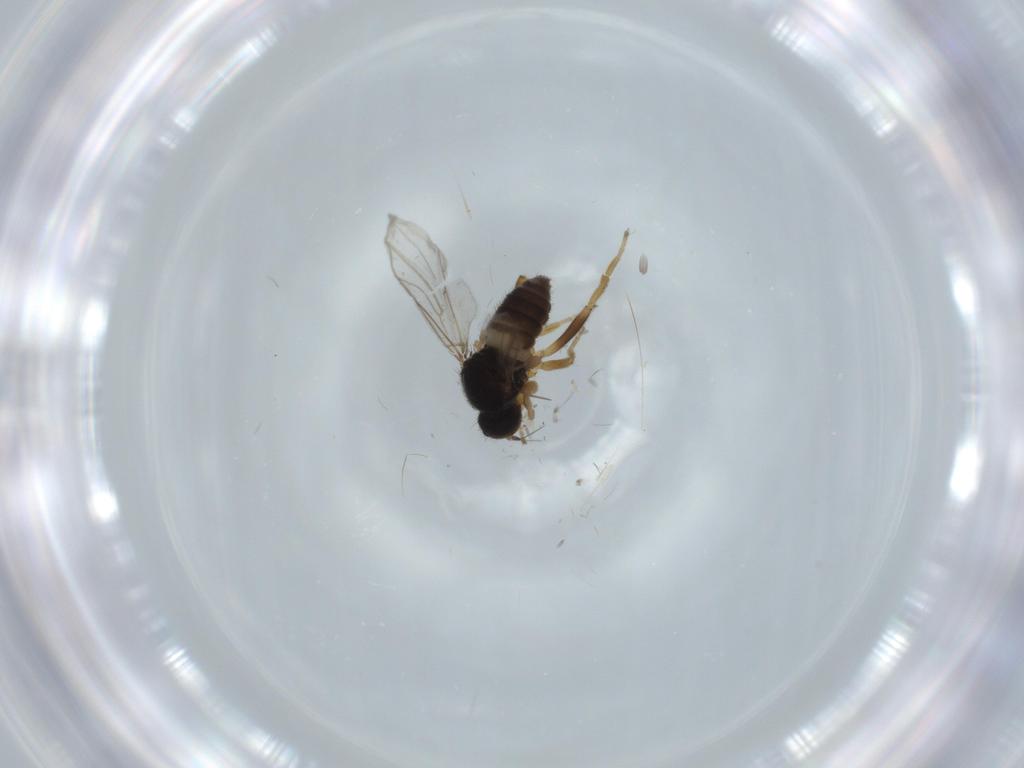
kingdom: Animalia
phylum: Arthropoda
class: Insecta
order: Diptera
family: Hybotidae
